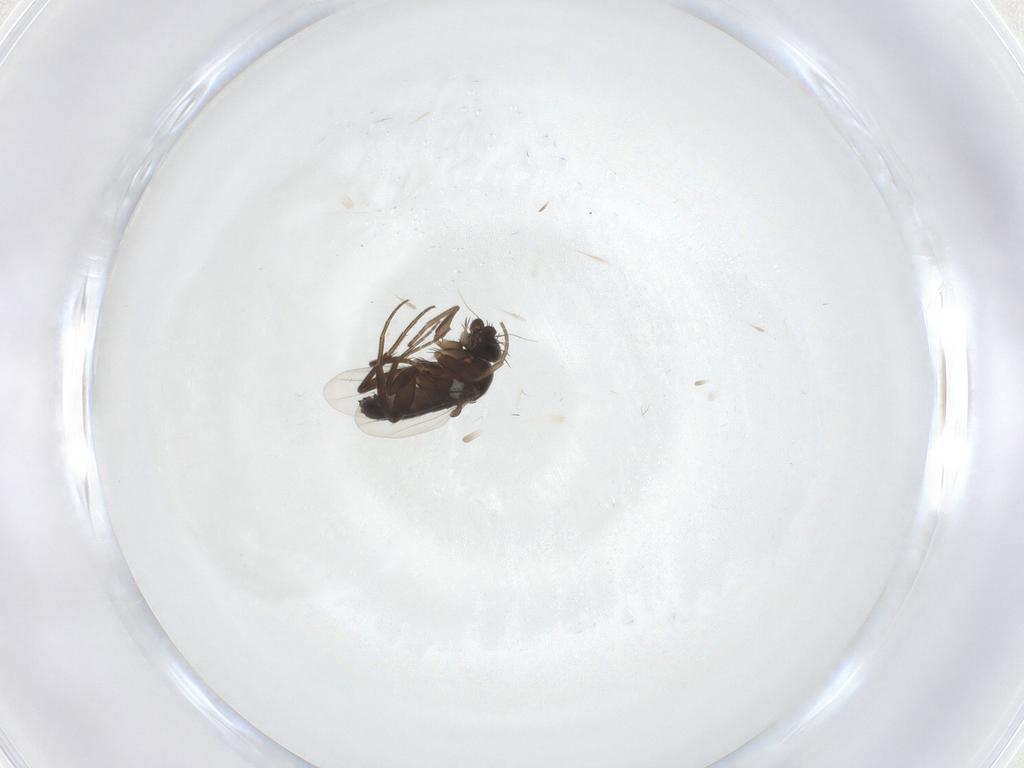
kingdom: Animalia
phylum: Arthropoda
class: Insecta
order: Diptera
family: Phoridae
